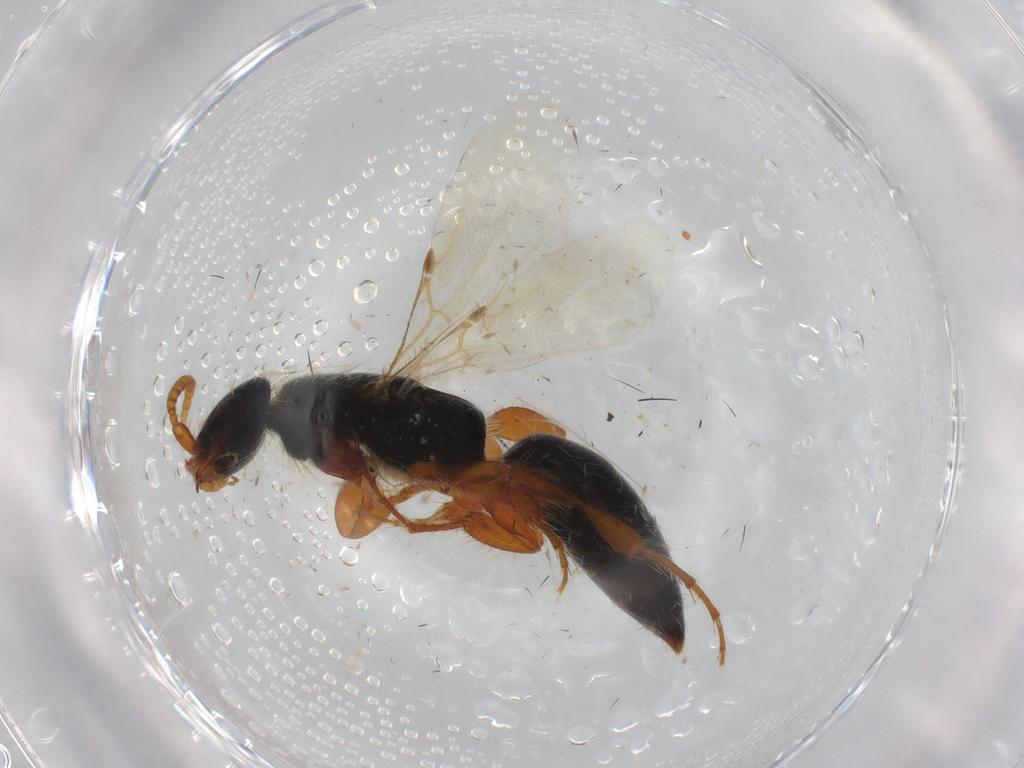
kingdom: Animalia
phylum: Arthropoda
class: Insecta
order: Hymenoptera
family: Bethylidae
